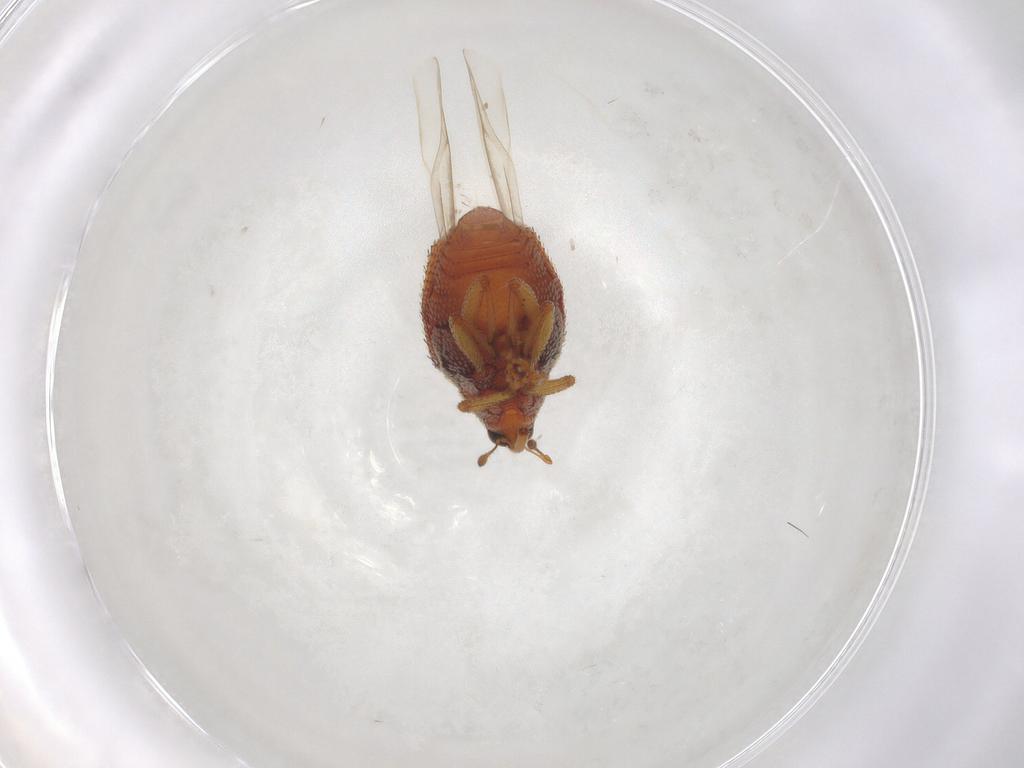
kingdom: Animalia
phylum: Arthropoda
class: Insecta
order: Coleoptera
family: Curculionidae
